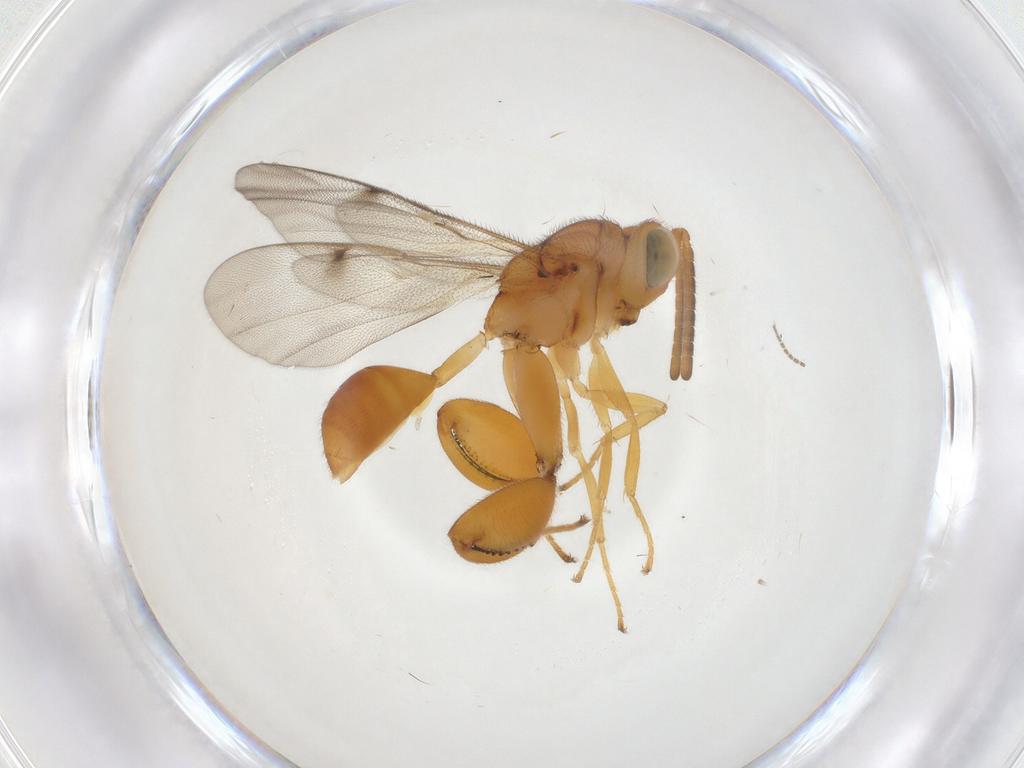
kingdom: Animalia
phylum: Arthropoda
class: Insecta
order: Hymenoptera
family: Chalcididae
